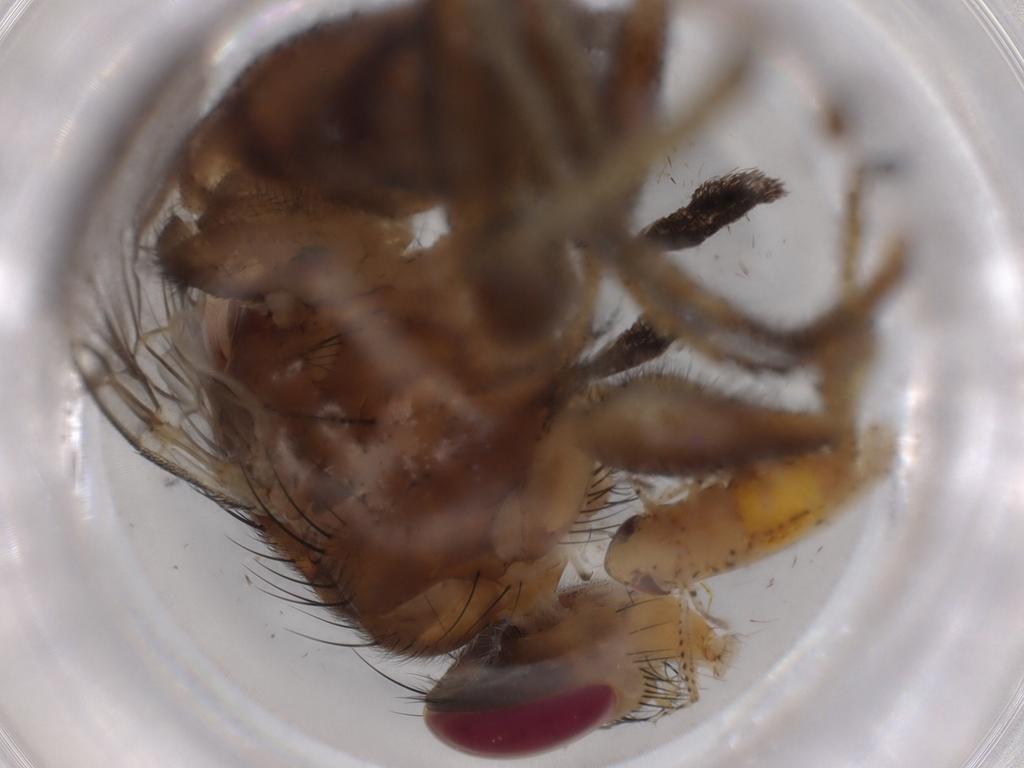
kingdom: Animalia
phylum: Arthropoda
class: Insecta
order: Diptera
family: Calliphoridae
